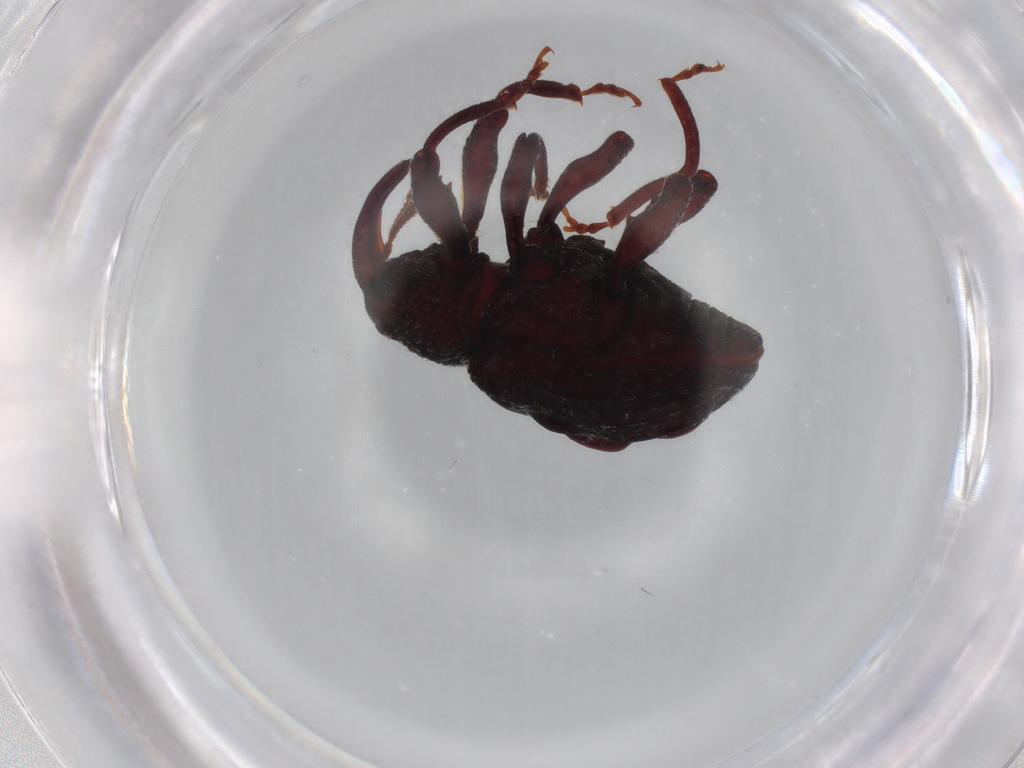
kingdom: Animalia
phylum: Arthropoda
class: Insecta
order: Coleoptera
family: Curculionidae
